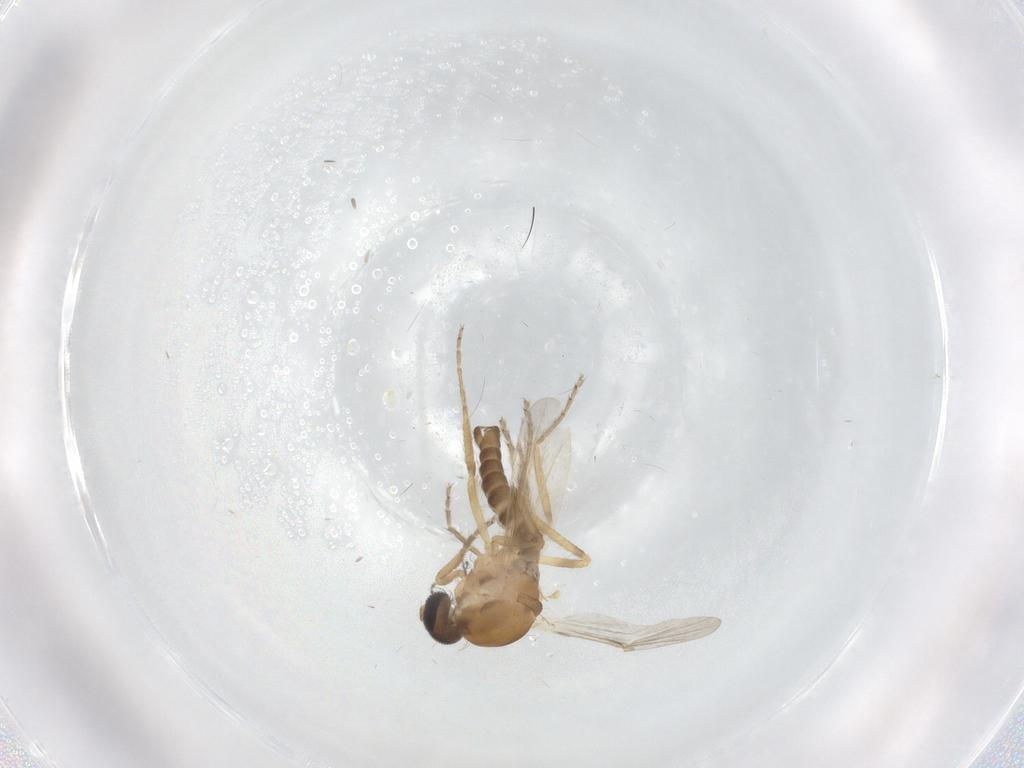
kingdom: Animalia
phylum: Arthropoda
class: Insecta
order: Diptera
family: Ceratopogonidae
